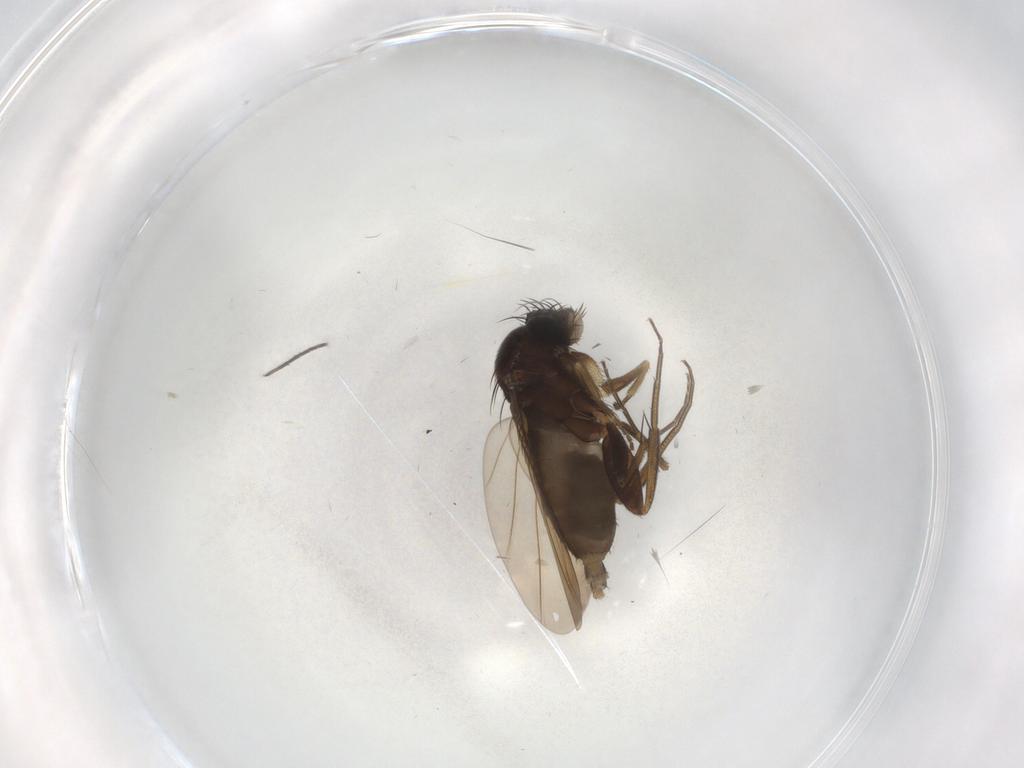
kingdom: Animalia
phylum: Arthropoda
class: Insecta
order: Diptera
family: Phoridae
